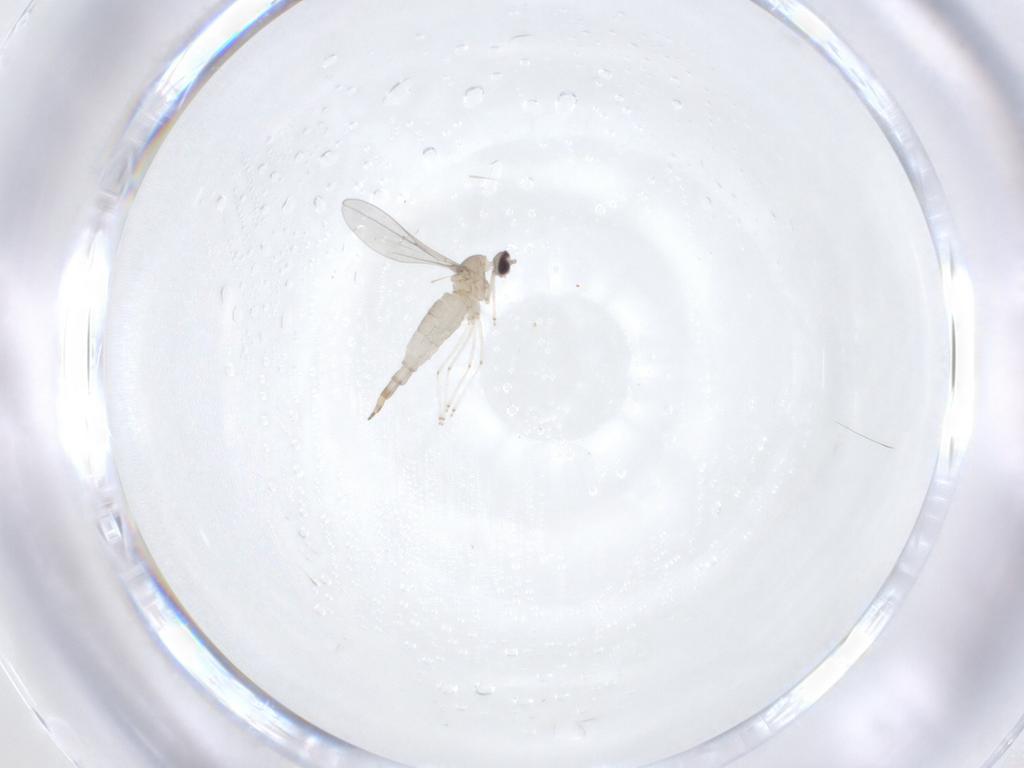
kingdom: Animalia
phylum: Arthropoda
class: Insecta
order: Diptera
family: Cecidomyiidae
